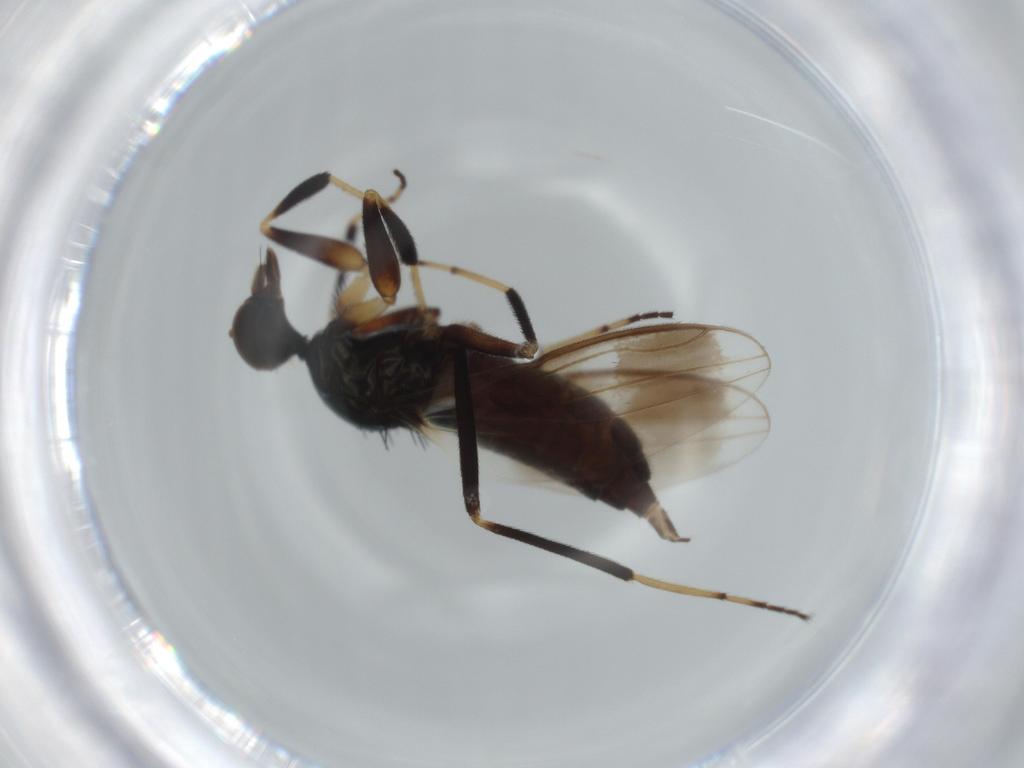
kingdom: Animalia
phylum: Arthropoda
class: Insecta
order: Diptera
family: Hybotidae
